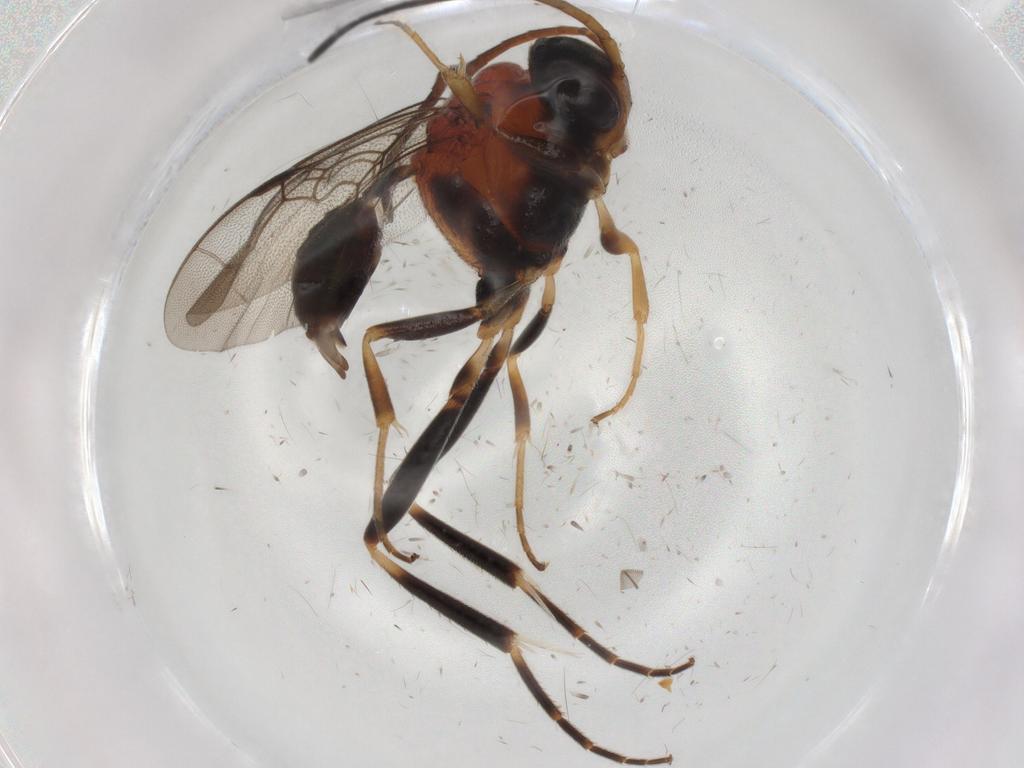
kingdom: Animalia
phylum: Arthropoda
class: Insecta
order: Hymenoptera
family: Evaniidae
